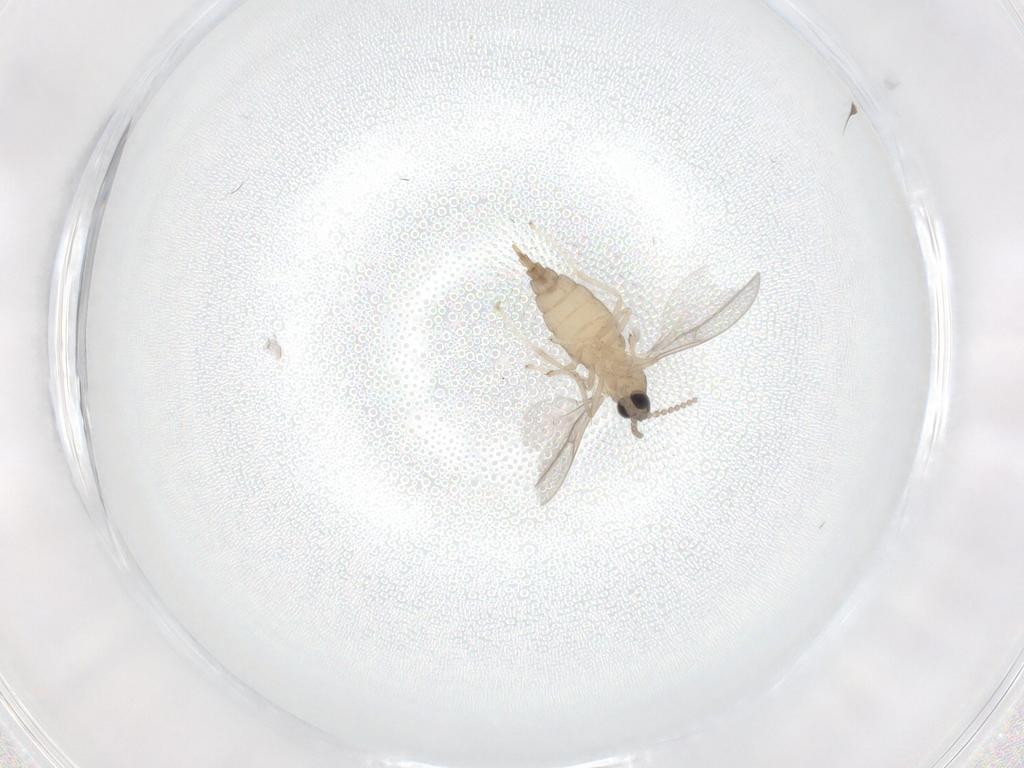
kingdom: Animalia
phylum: Arthropoda
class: Insecta
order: Diptera
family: Cecidomyiidae
